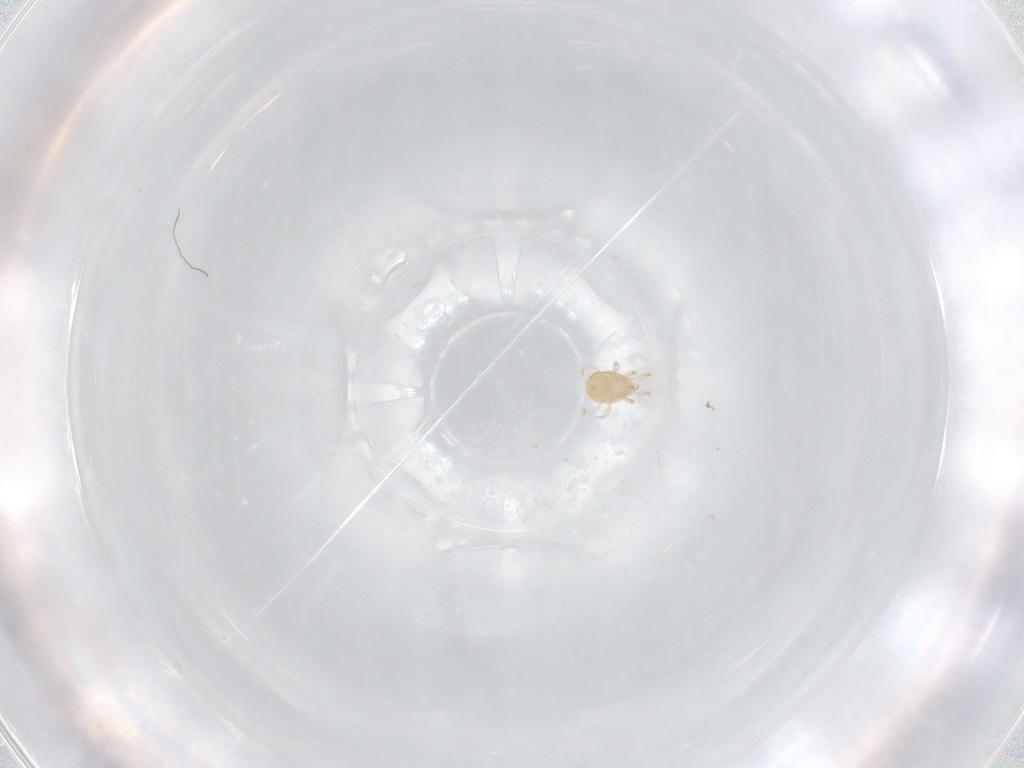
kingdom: Animalia
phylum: Arthropoda
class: Arachnida
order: Mesostigmata
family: Phytoseiidae
